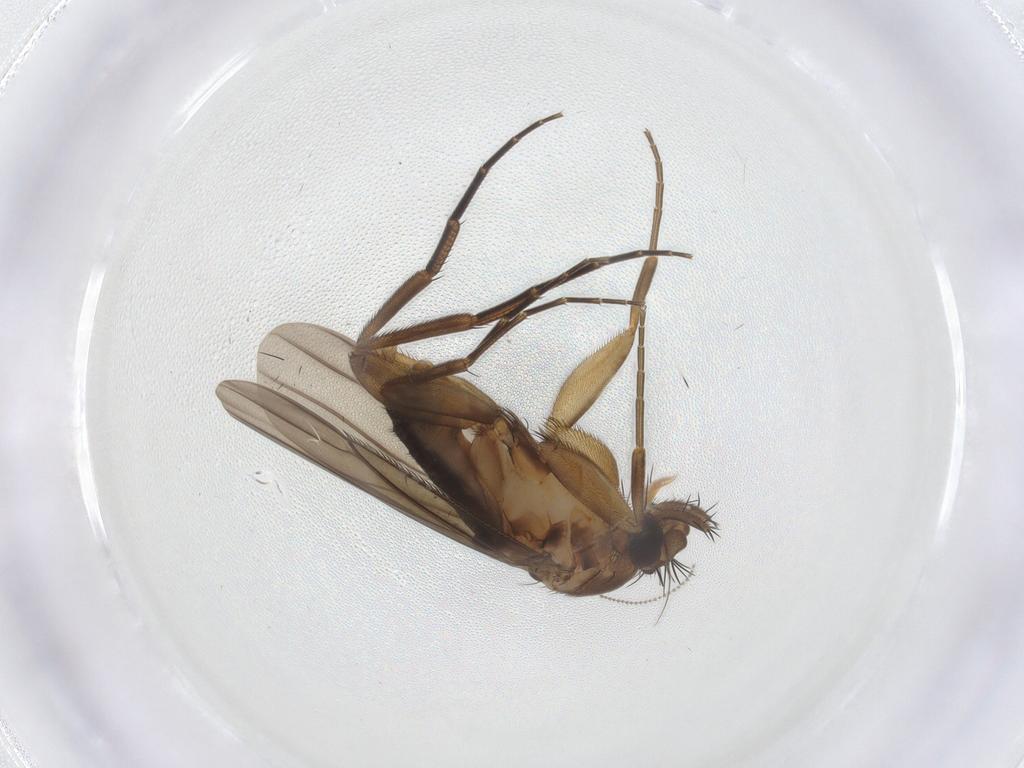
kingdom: Animalia
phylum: Arthropoda
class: Insecta
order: Diptera
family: Phoridae
